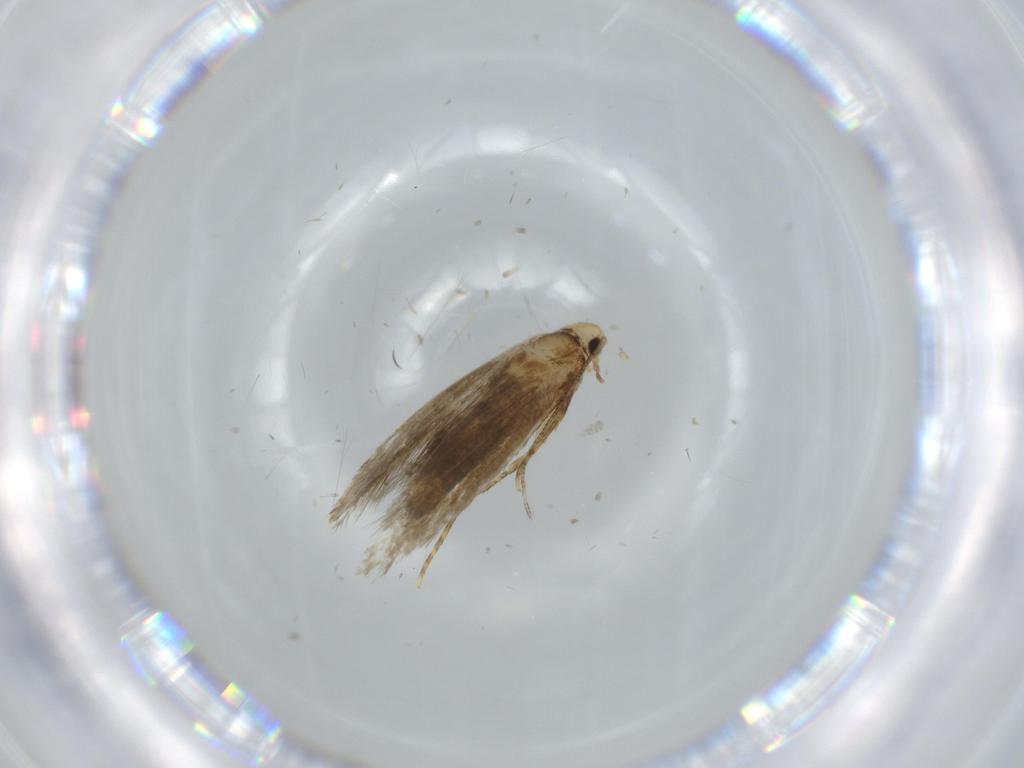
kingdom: Animalia
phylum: Arthropoda
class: Insecta
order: Lepidoptera
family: Tineidae
